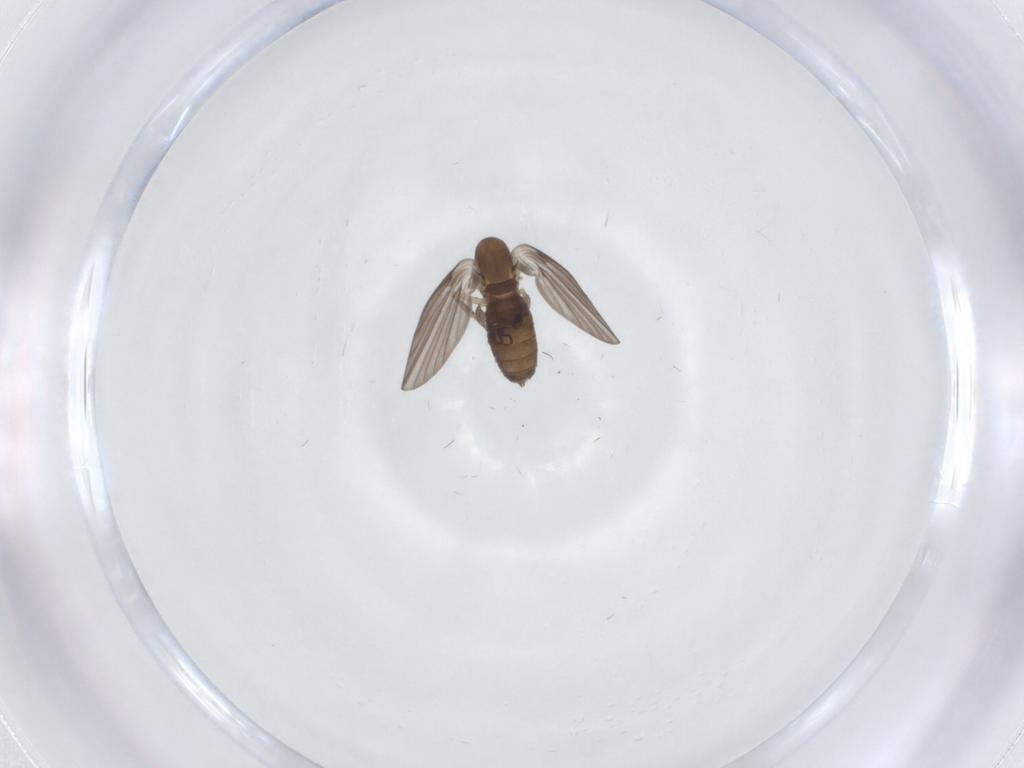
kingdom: Animalia
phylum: Arthropoda
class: Insecta
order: Diptera
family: Psychodidae
